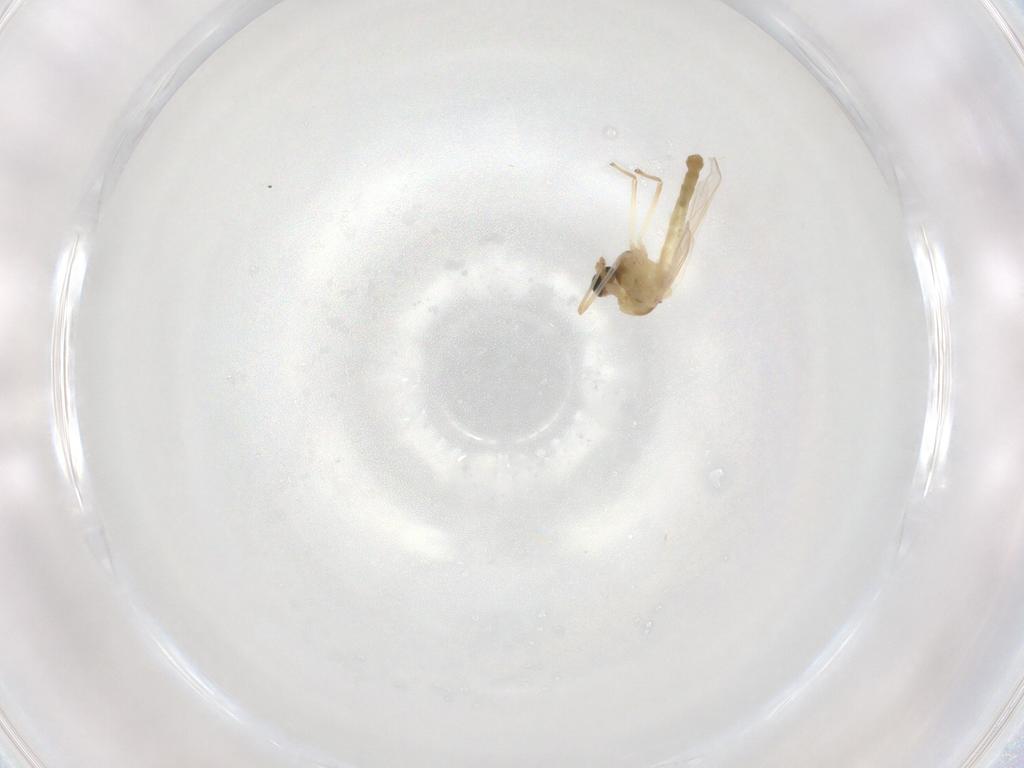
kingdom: Animalia
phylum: Arthropoda
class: Insecta
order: Diptera
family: Chironomidae
